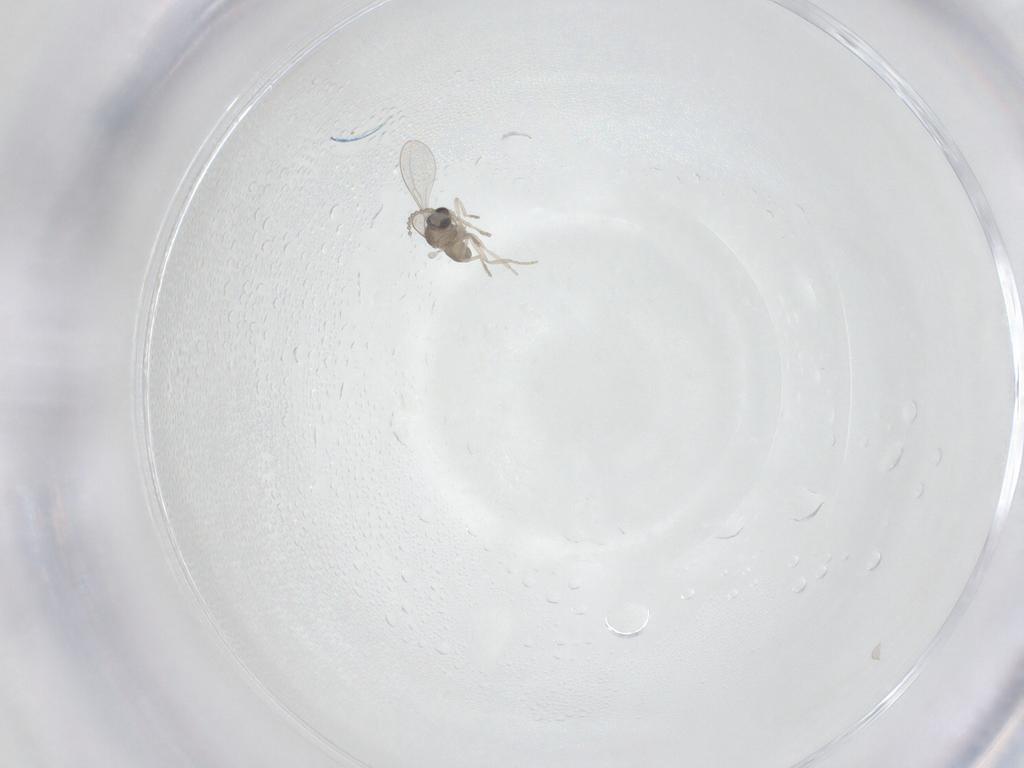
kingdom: Animalia
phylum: Arthropoda
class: Insecta
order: Diptera
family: Cecidomyiidae
